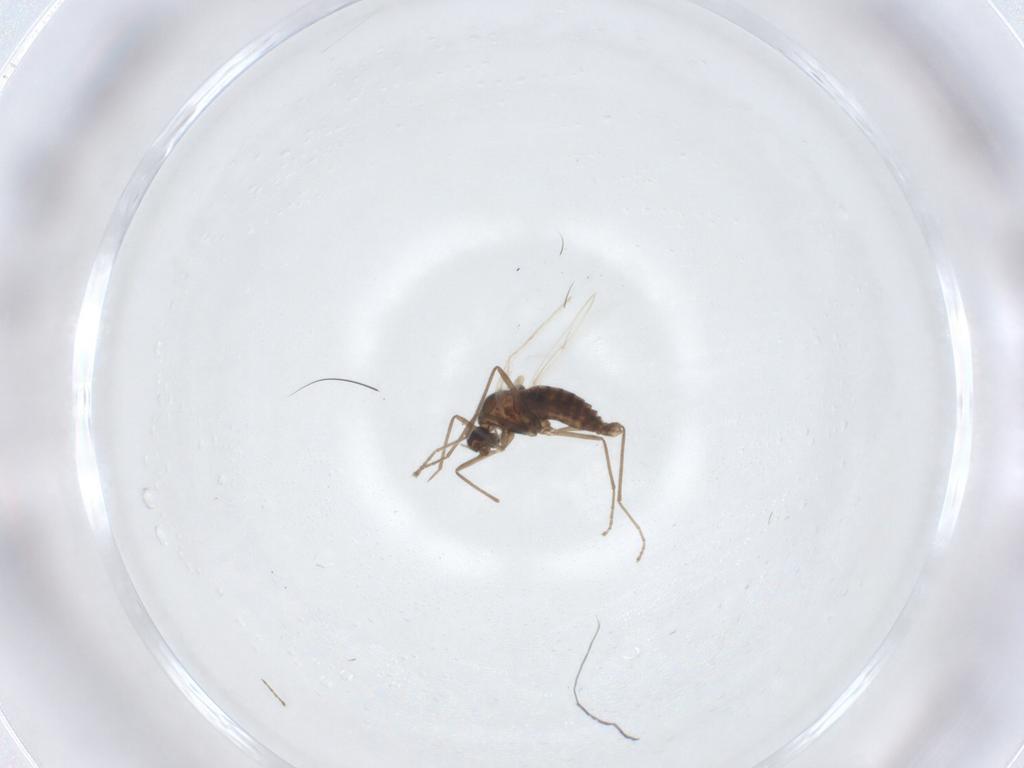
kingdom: Animalia
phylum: Arthropoda
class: Insecta
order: Diptera
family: Cecidomyiidae
